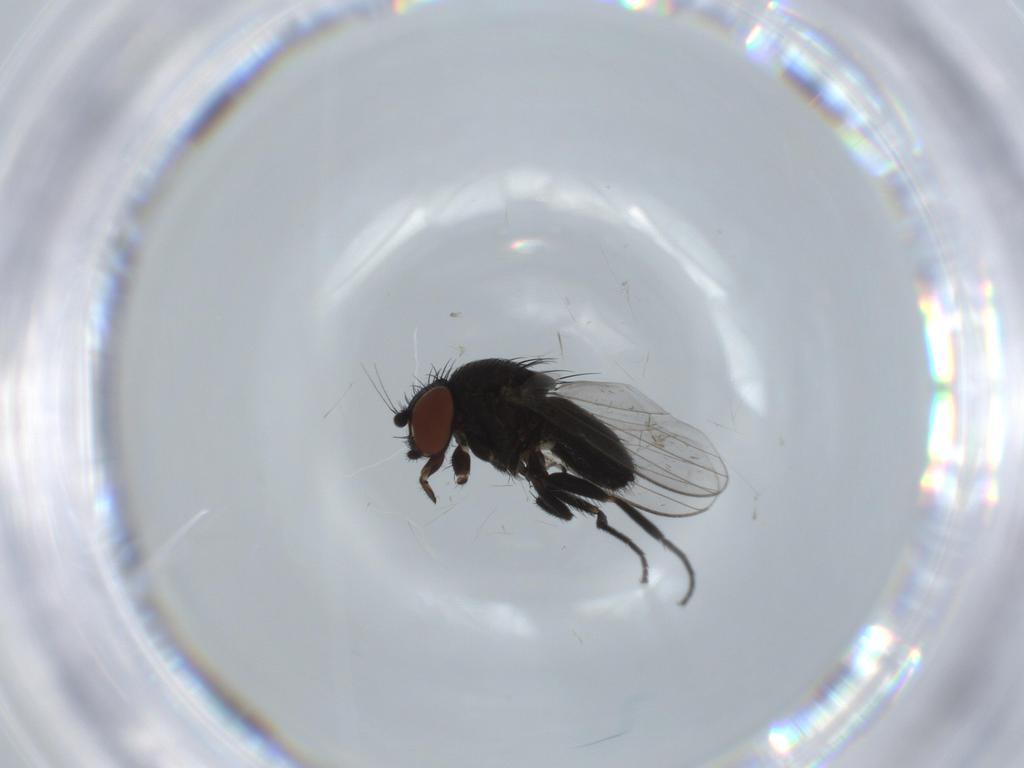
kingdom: Animalia
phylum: Arthropoda
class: Insecta
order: Diptera
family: Milichiidae
